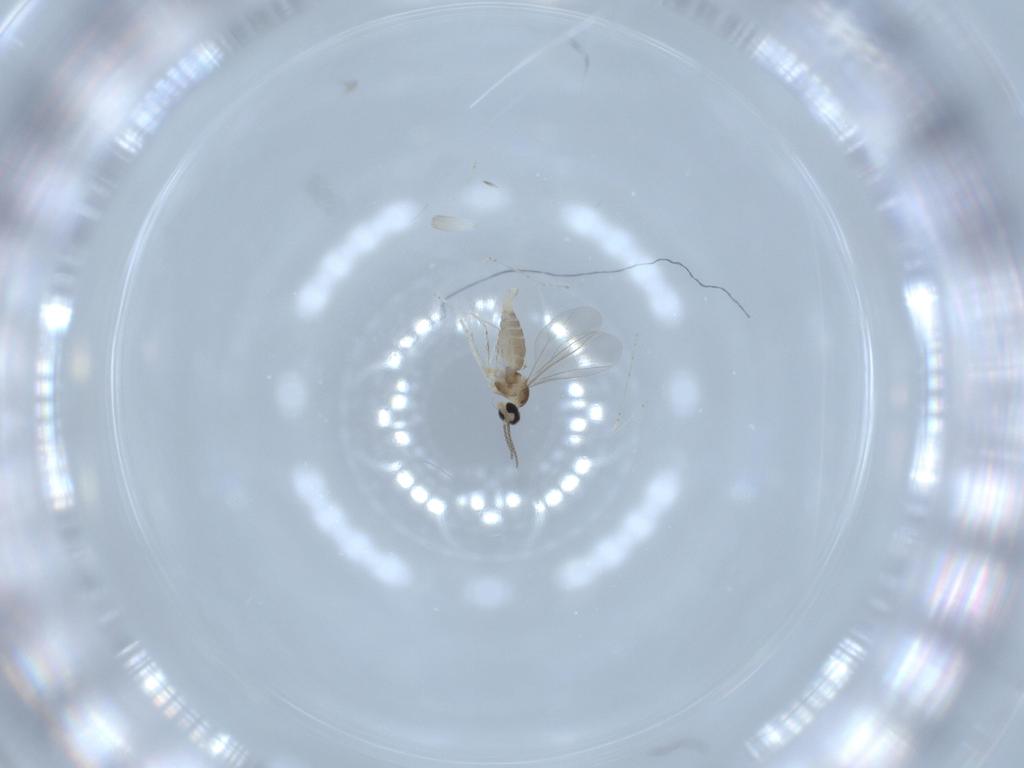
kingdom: Animalia
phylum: Arthropoda
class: Insecta
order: Diptera
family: Cecidomyiidae
